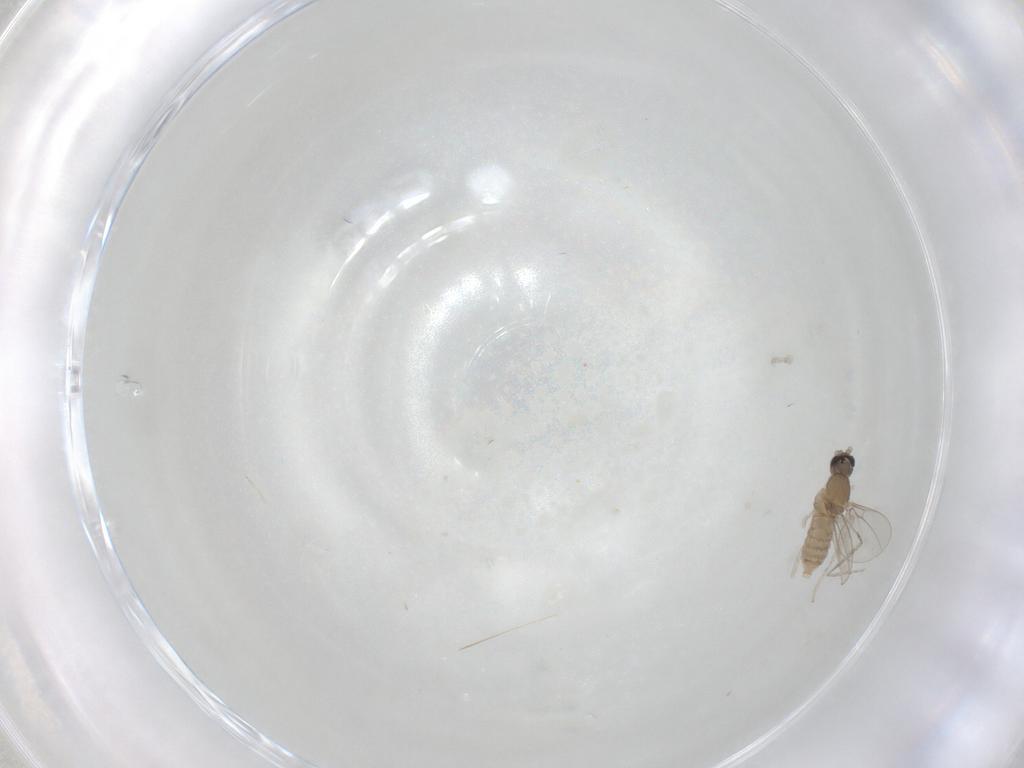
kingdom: Animalia
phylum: Arthropoda
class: Insecta
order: Diptera
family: Cecidomyiidae
